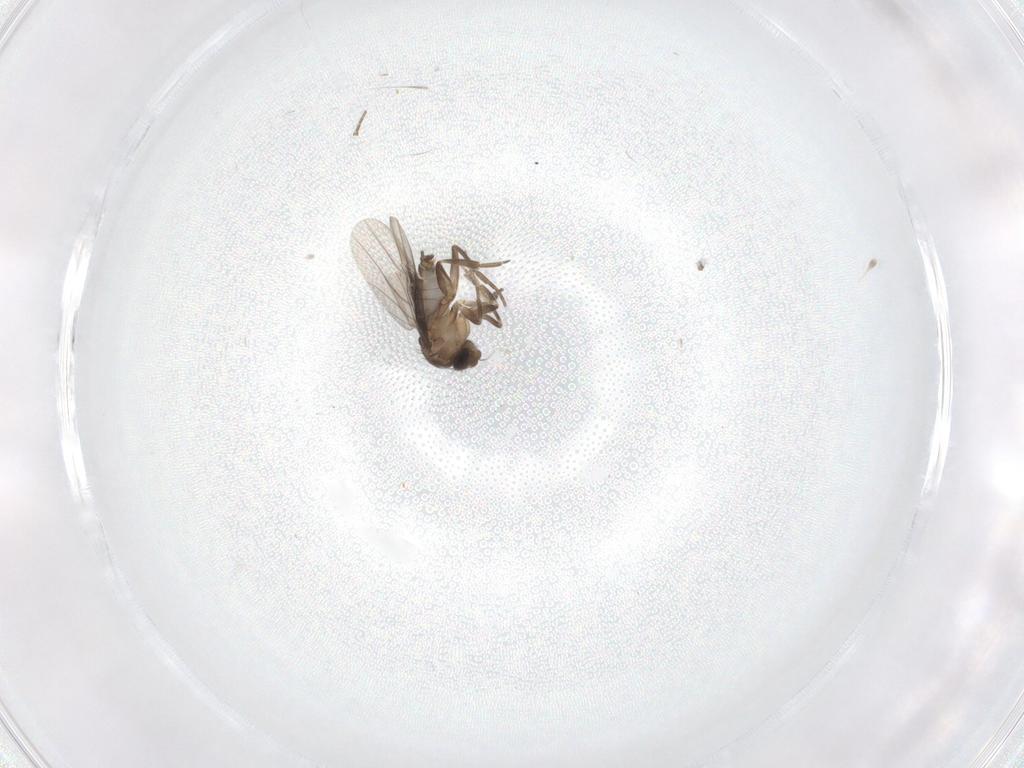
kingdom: Animalia
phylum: Arthropoda
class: Insecta
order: Diptera
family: Phoridae
